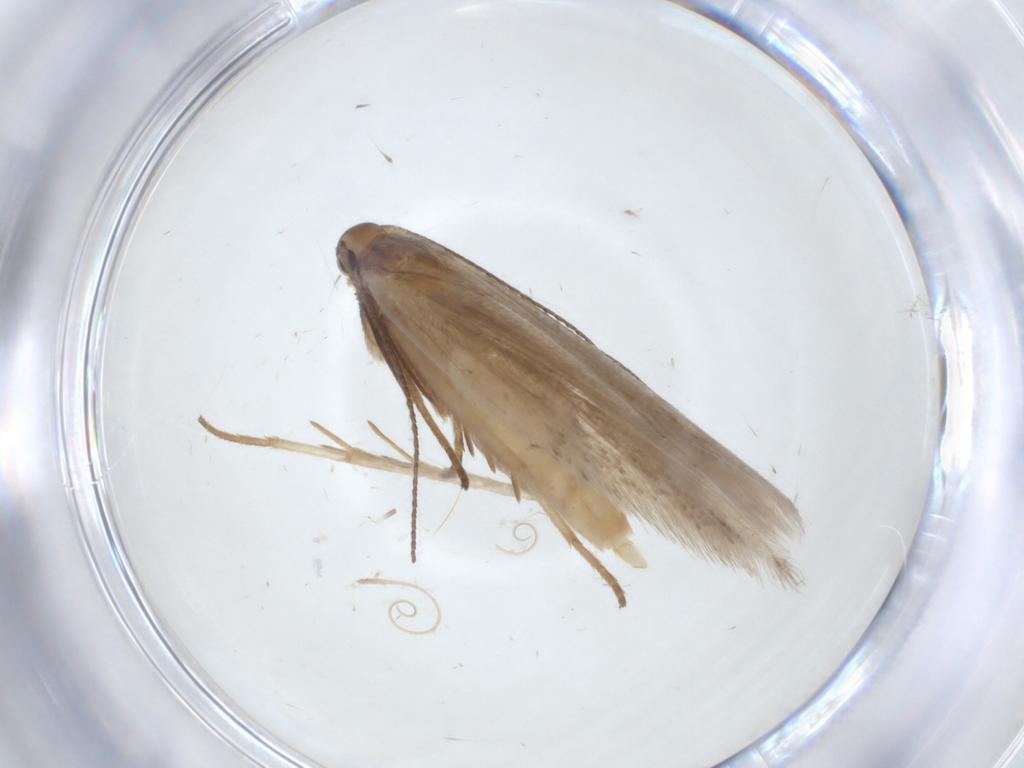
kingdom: Animalia
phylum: Arthropoda
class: Insecta
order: Lepidoptera
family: Gelechiidae
